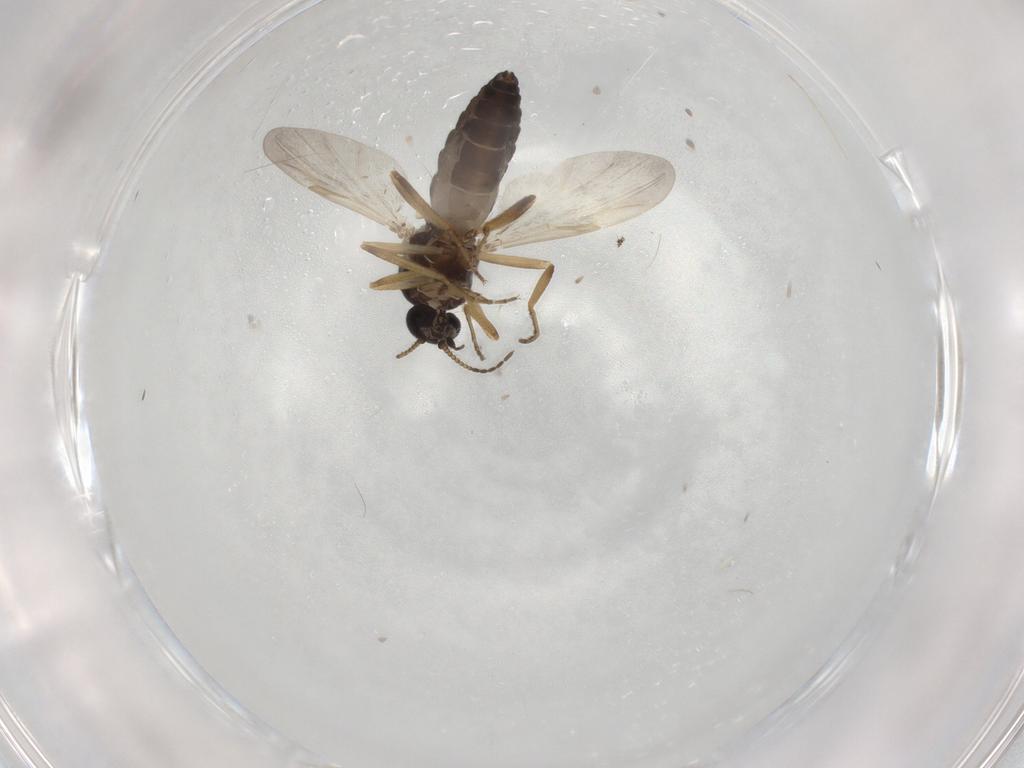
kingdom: Animalia
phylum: Arthropoda
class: Insecta
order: Diptera
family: Ceratopogonidae
